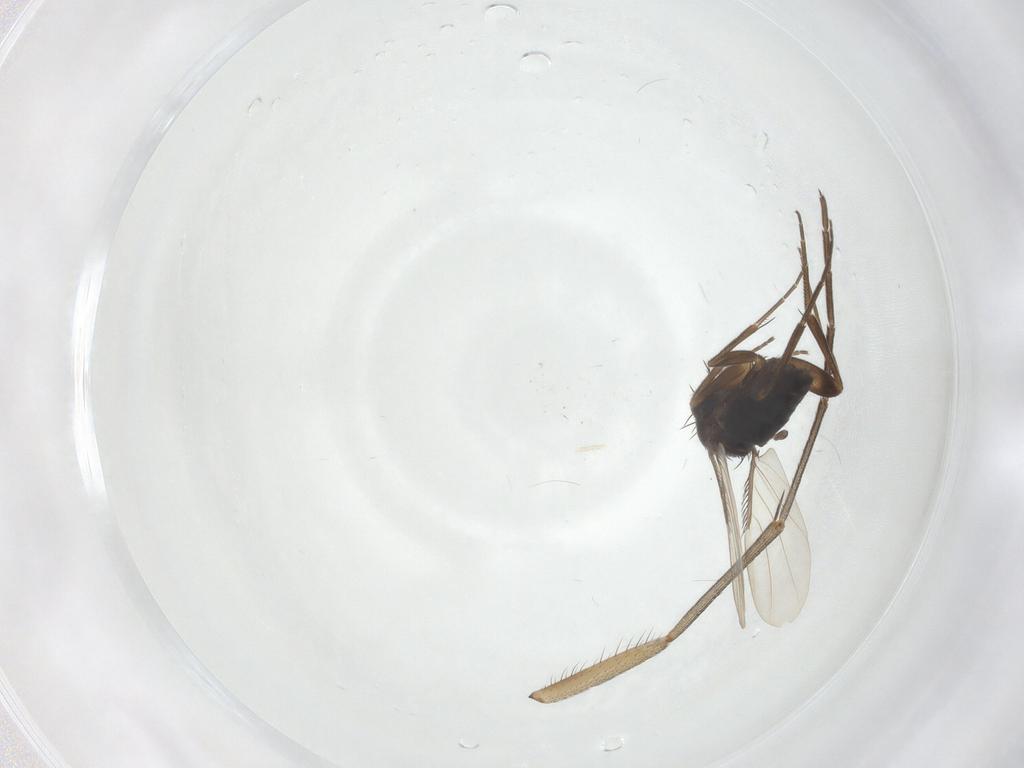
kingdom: Animalia
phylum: Arthropoda
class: Insecta
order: Diptera
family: Mycetophilidae
